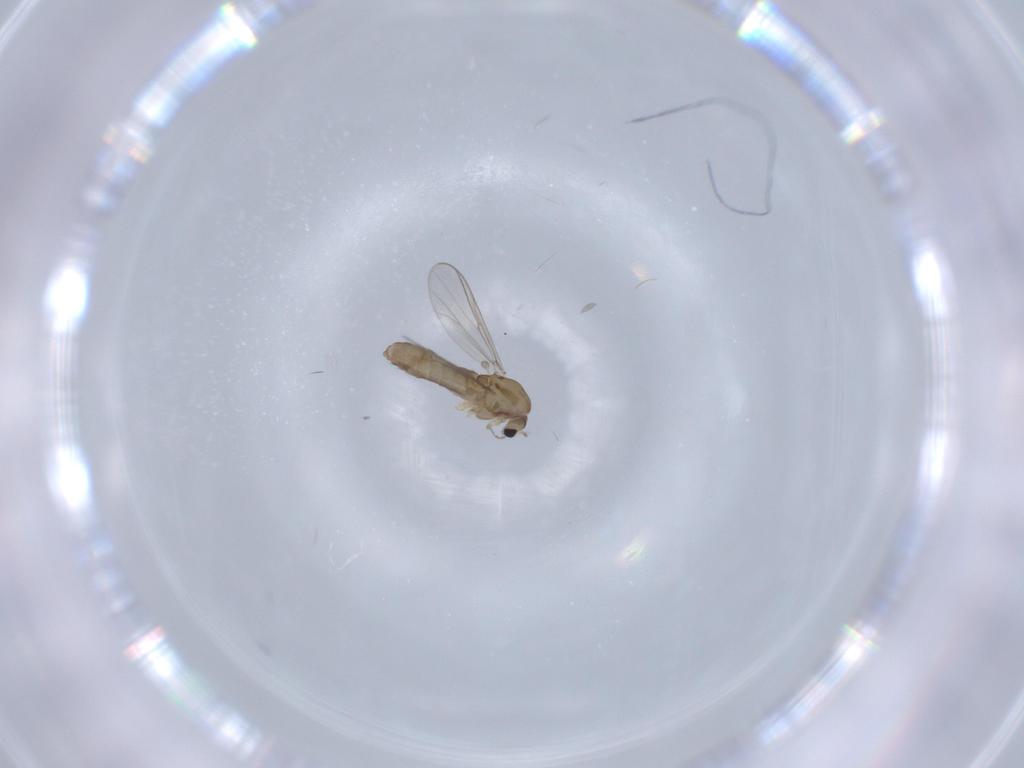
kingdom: Animalia
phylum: Arthropoda
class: Insecta
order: Diptera
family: Chironomidae
